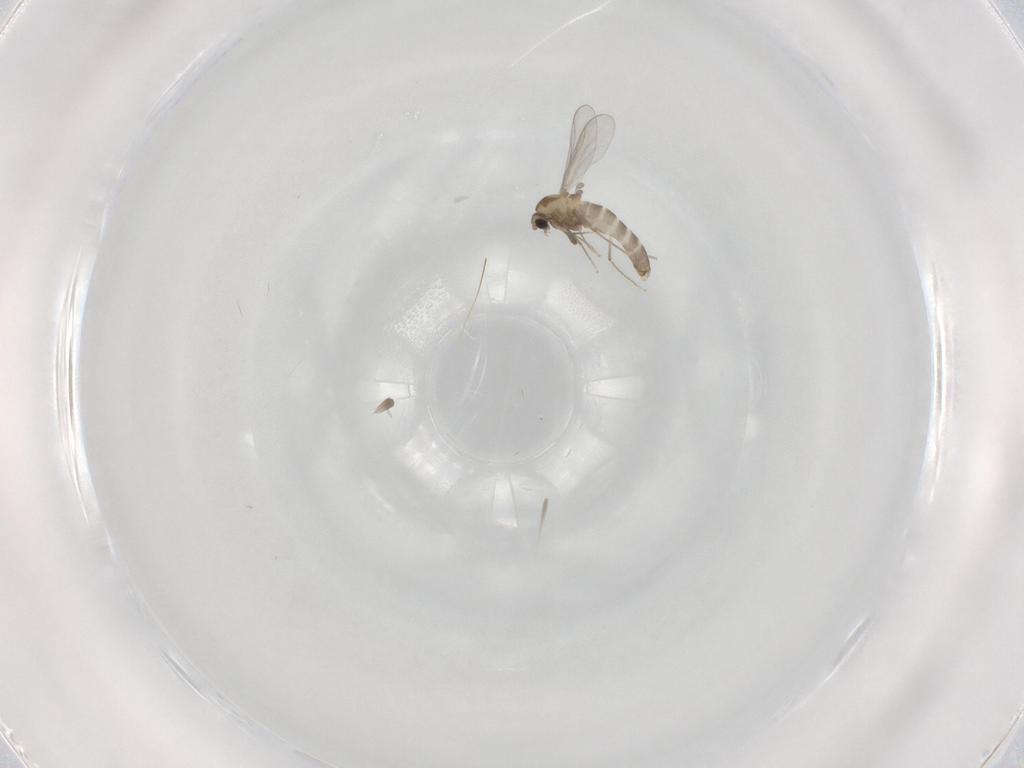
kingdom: Animalia
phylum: Arthropoda
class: Insecta
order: Diptera
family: Chironomidae
